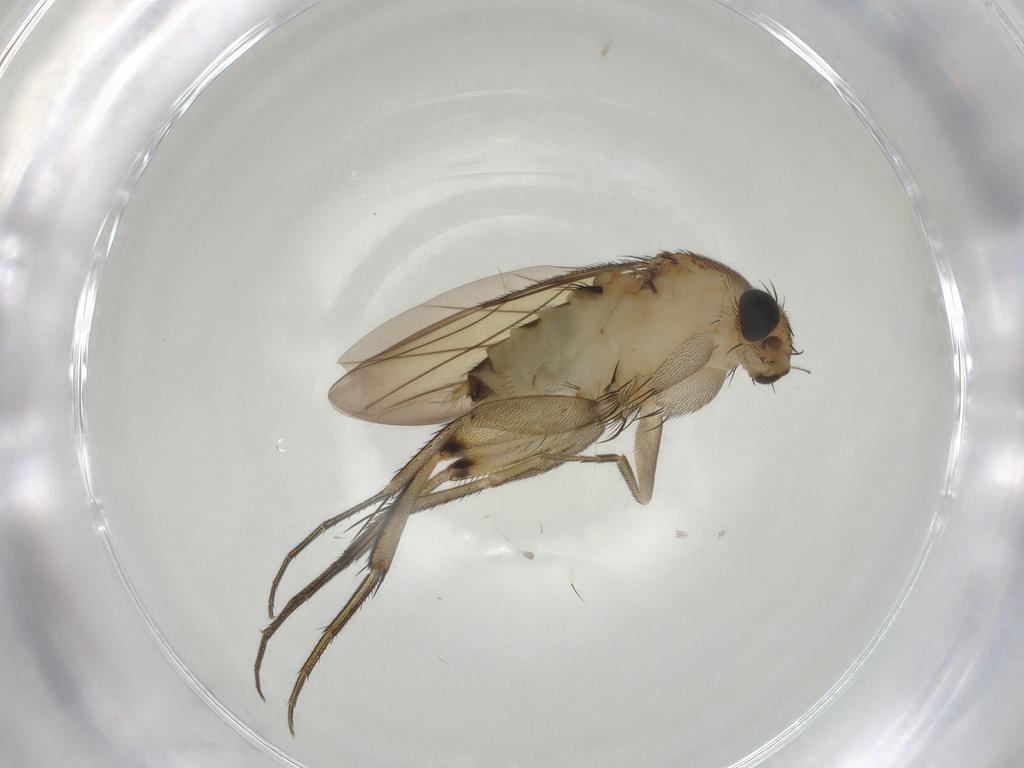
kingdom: Animalia
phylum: Arthropoda
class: Insecta
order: Diptera
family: Phoridae
